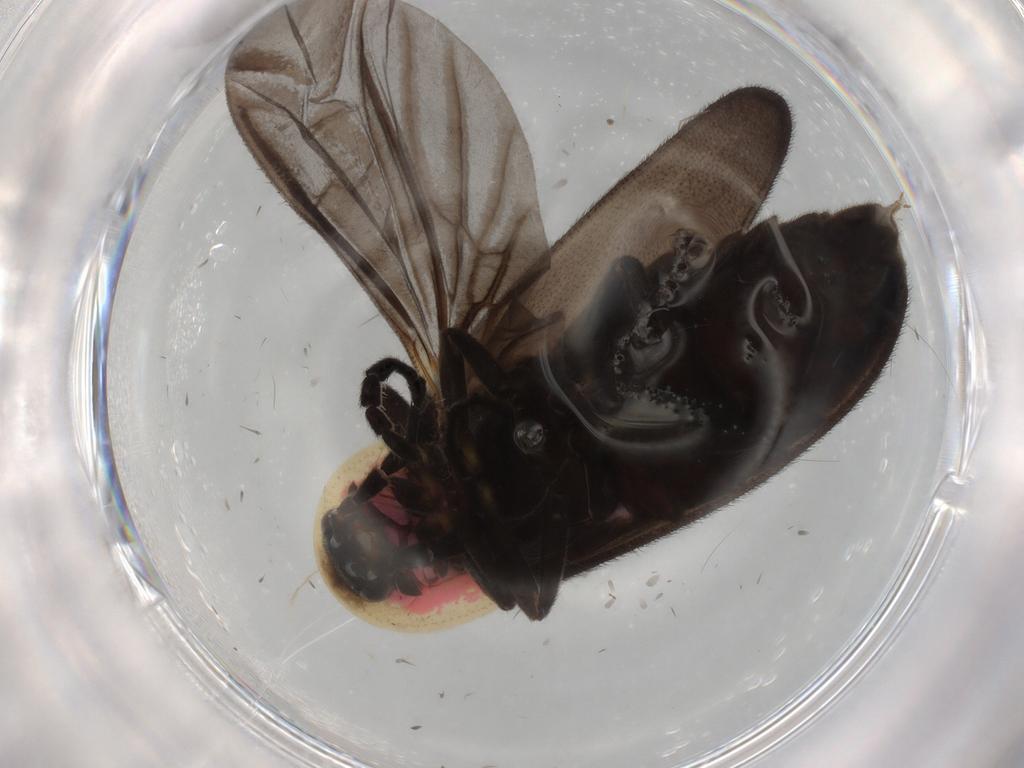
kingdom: Animalia
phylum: Arthropoda
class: Insecta
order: Coleoptera
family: Lampyridae
